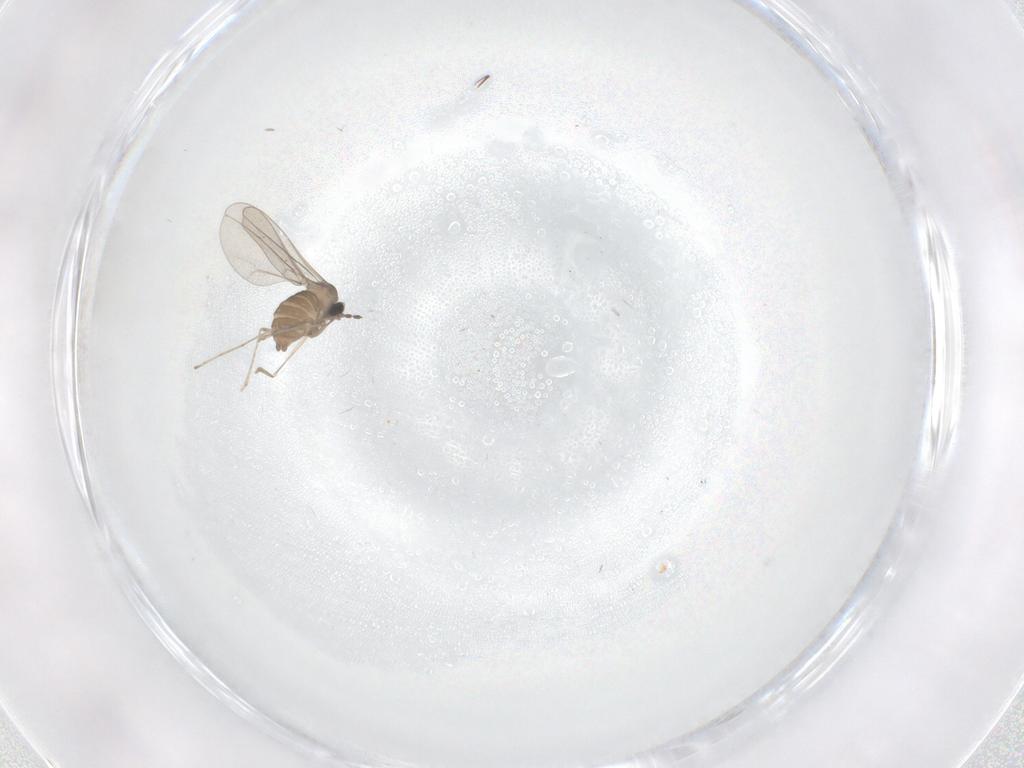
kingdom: Animalia
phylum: Arthropoda
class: Insecta
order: Diptera
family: Cecidomyiidae
